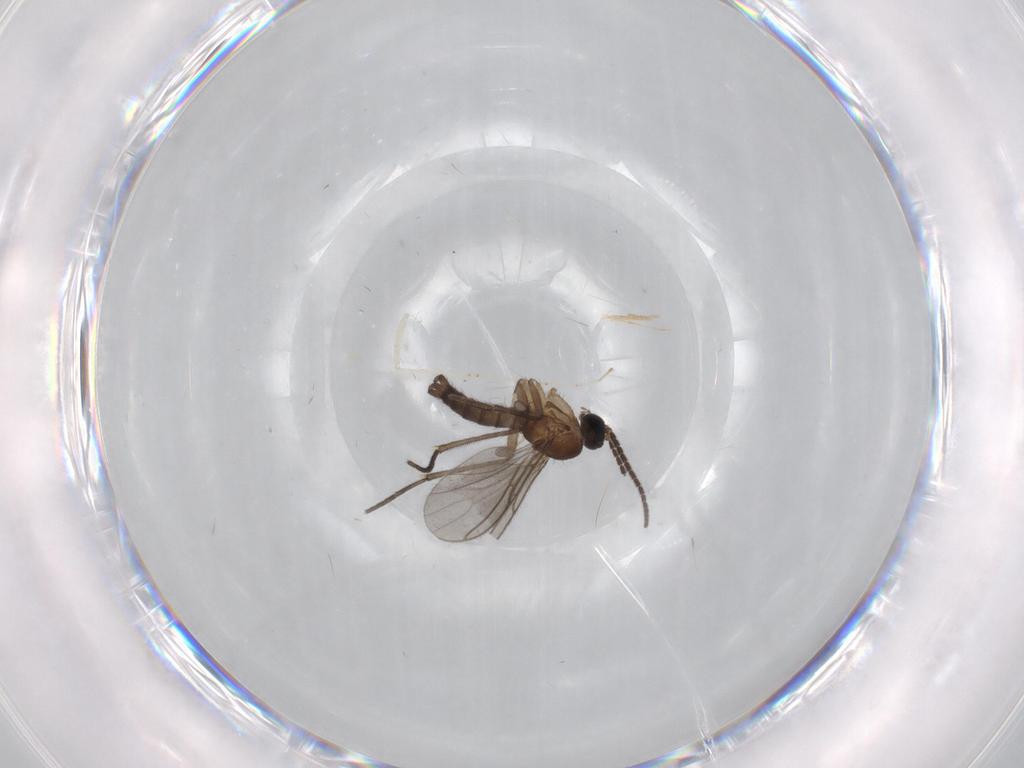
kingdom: Animalia
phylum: Arthropoda
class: Insecta
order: Diptera
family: Sciaridae
